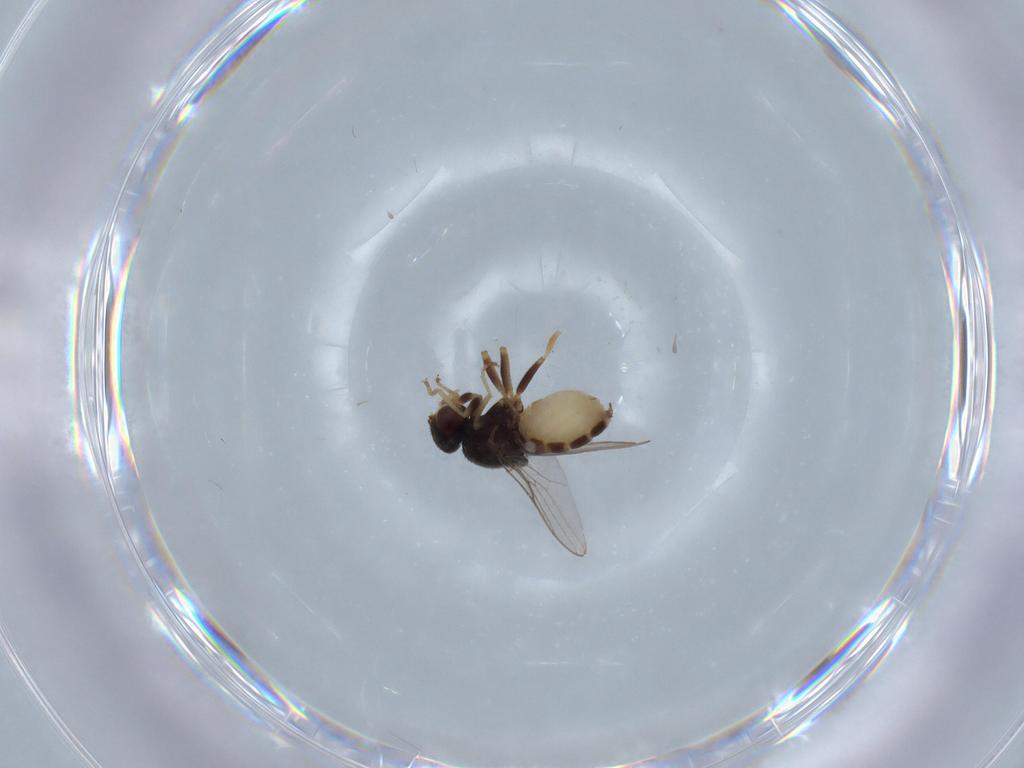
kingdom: Animalia
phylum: Arthropoda
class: Insecta
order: Diptera
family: Chloropidae
